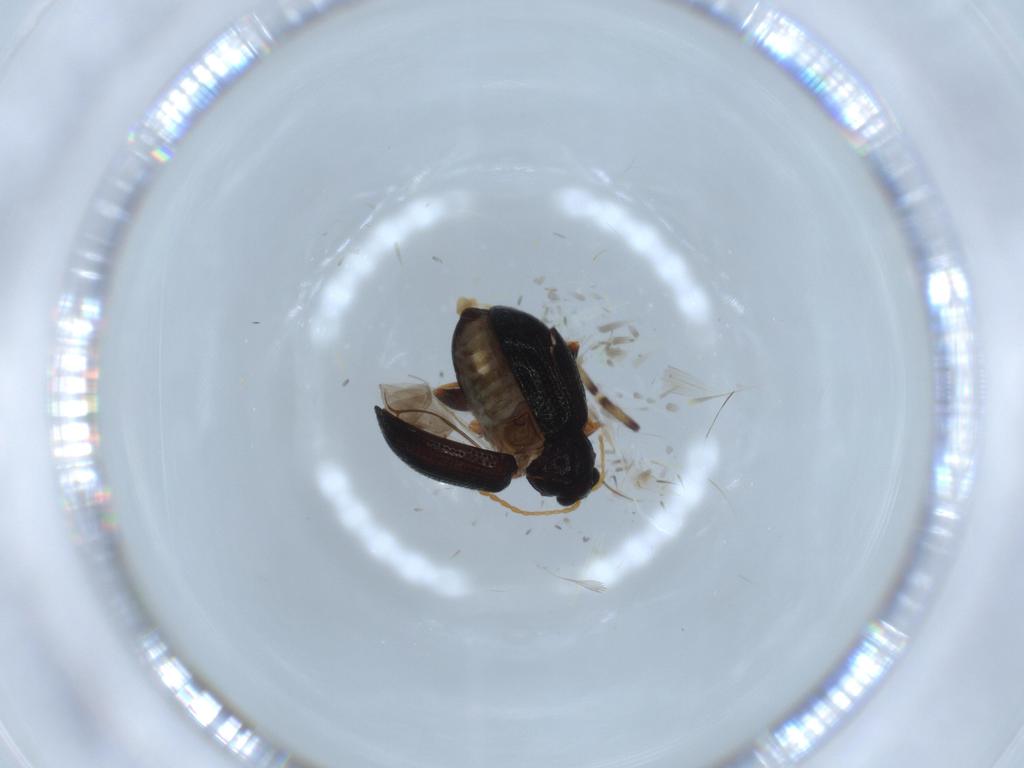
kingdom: Animalia
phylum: Arthropoda
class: Insecta
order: Coleoptera
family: Chrysomelidae
